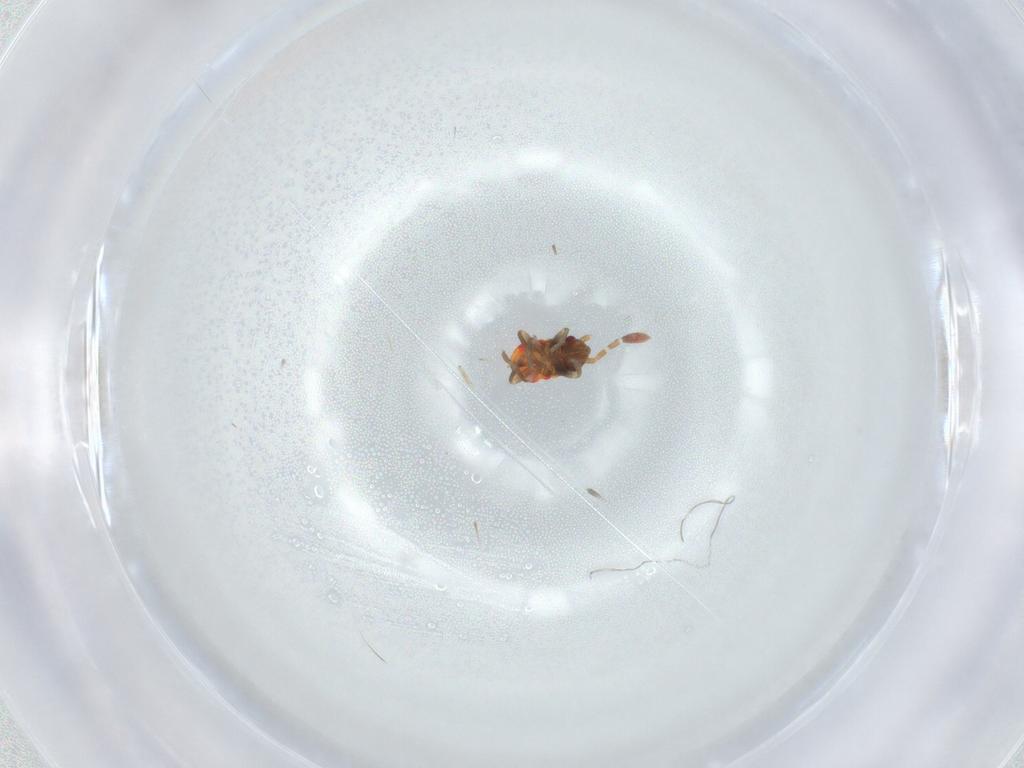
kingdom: Animalia
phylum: Arthropoda
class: Insecta
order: Hemiptera
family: Rhyparochromidae
